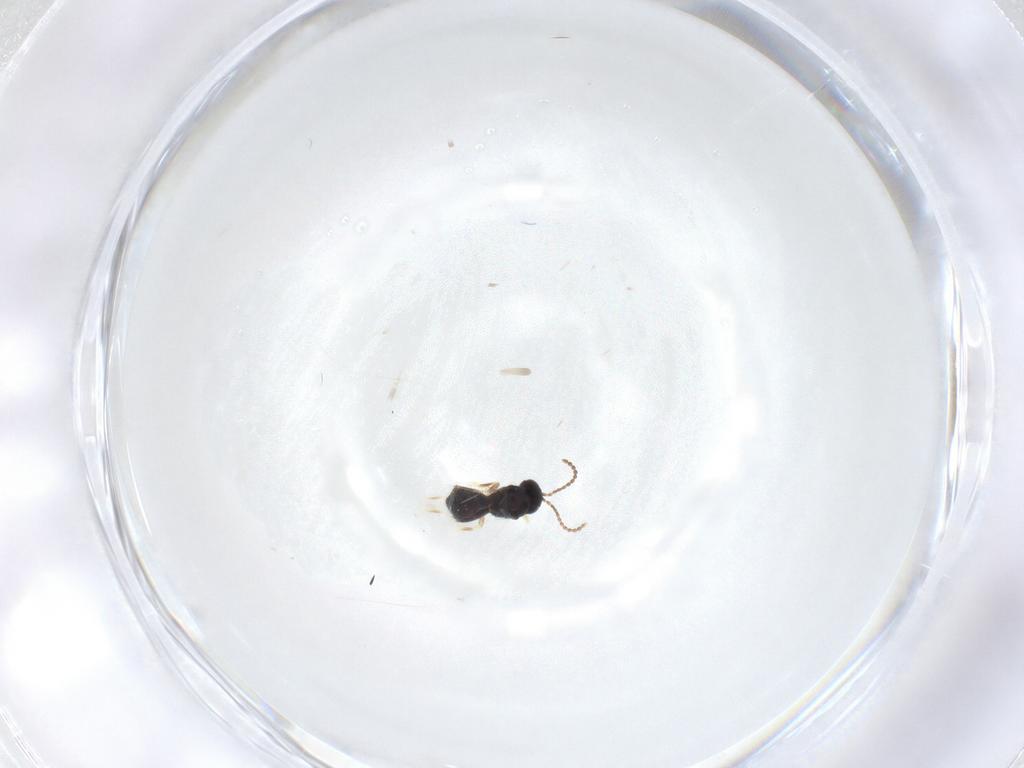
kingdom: Animalia
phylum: Arthropoda
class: Insecta
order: Hymenoptera
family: Scelionidae
